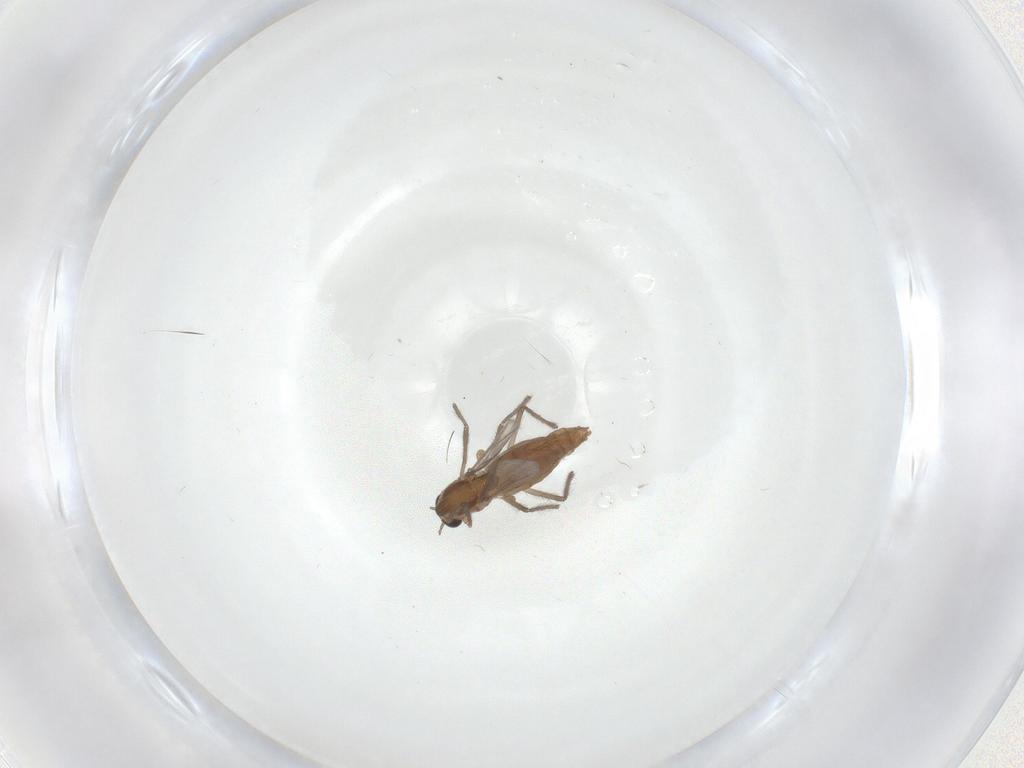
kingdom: Animalia
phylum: Arthropoda
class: Insecta
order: Diptera
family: Chironomidae
